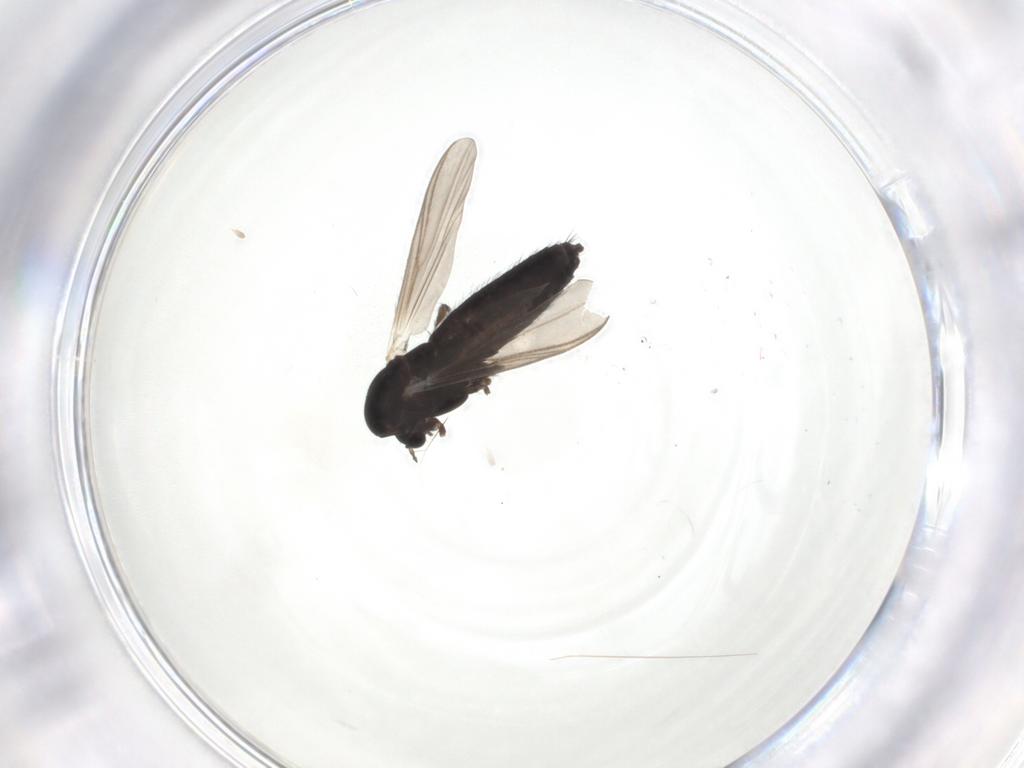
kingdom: Animalia
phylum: Arthropoda
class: Insecta
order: Diptera
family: Chironomidae
